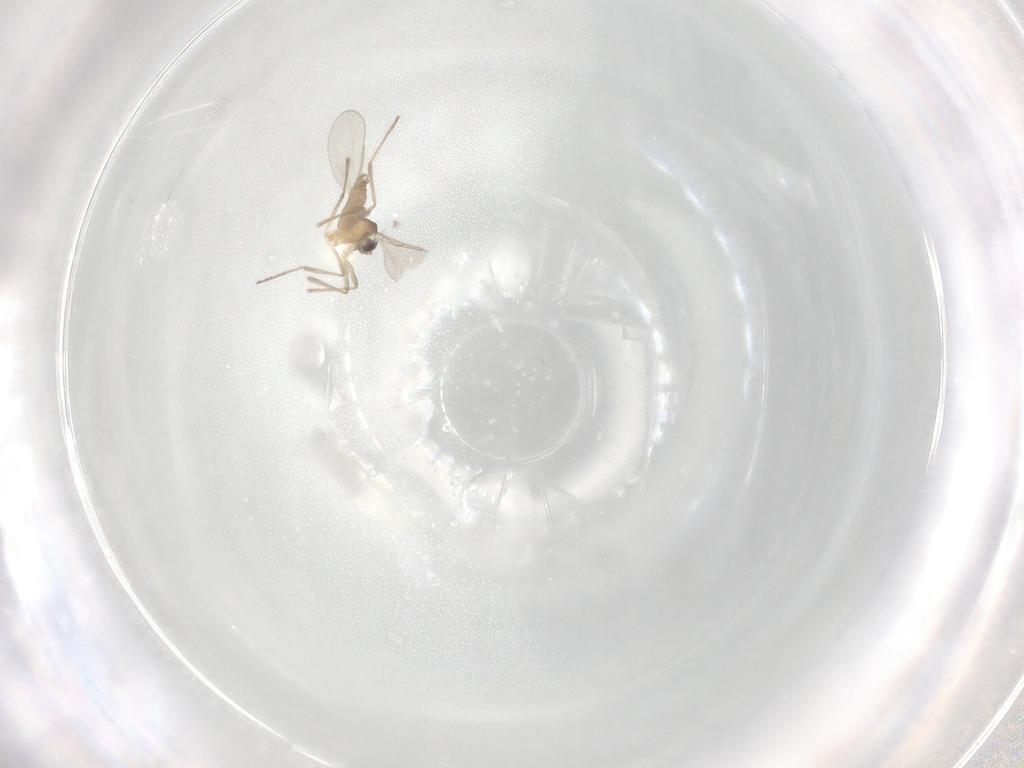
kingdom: Animalia
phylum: Arthropoda
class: Insecta
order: Diptera
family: Cecidomyiidae
